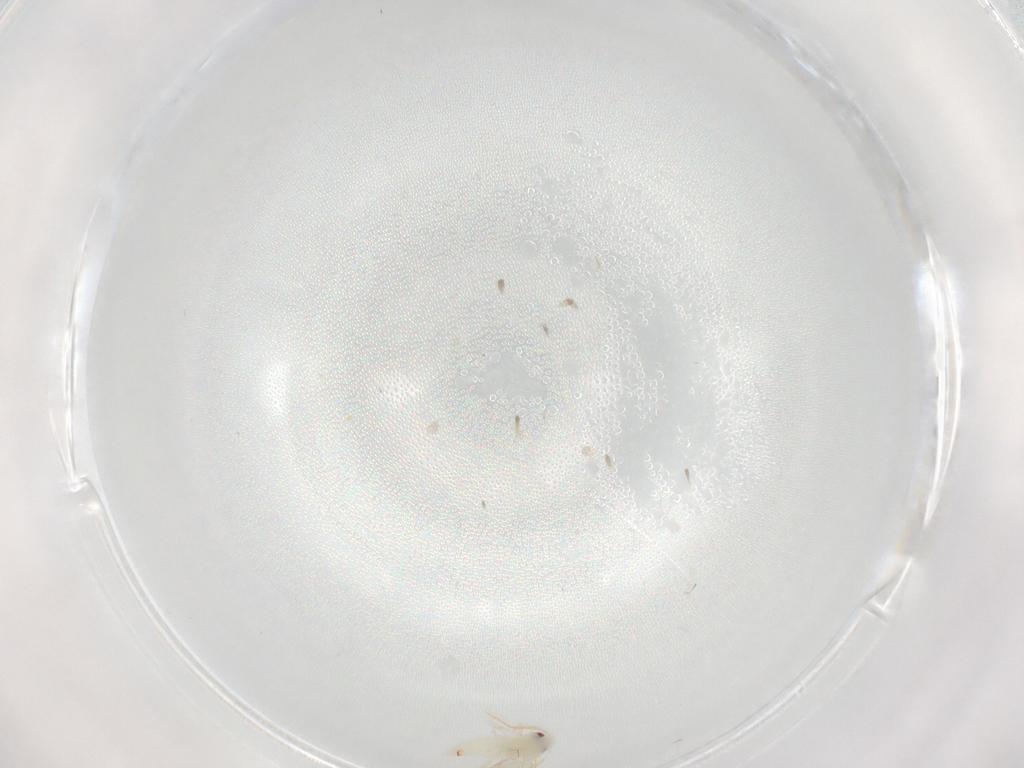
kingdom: Animalia
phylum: Arthropoda
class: Insecta
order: Hemiptera
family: Aleyrodidae
